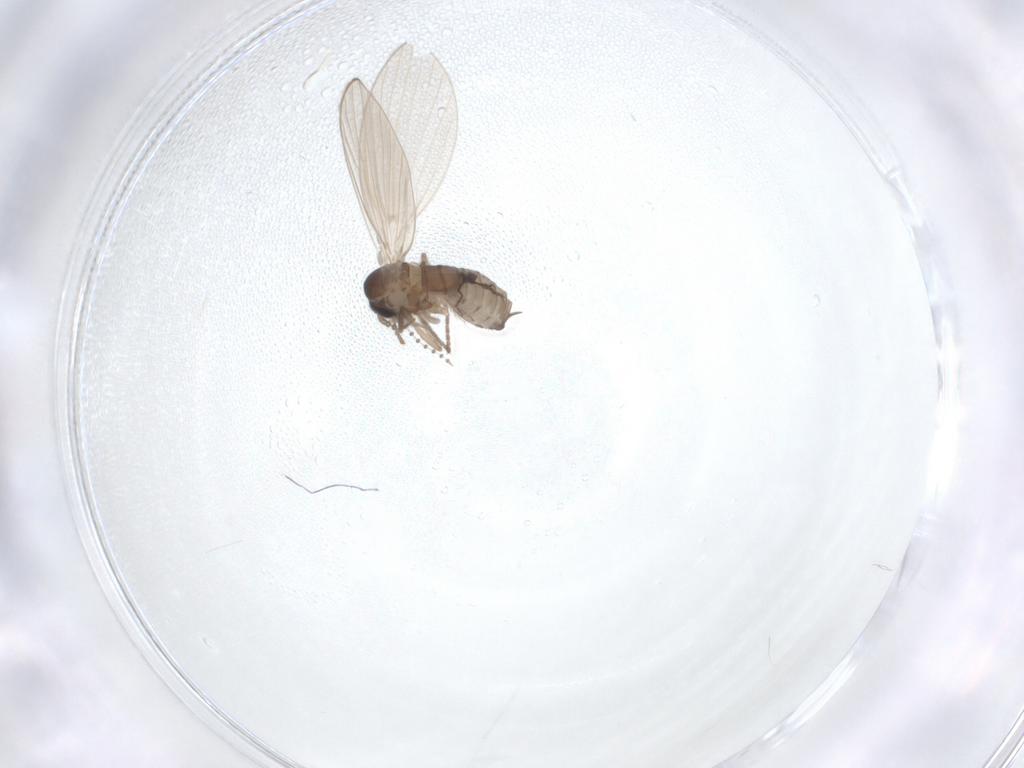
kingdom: Animalia
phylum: Arthropoda
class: Insecta
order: Diptera
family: Psychodidae
